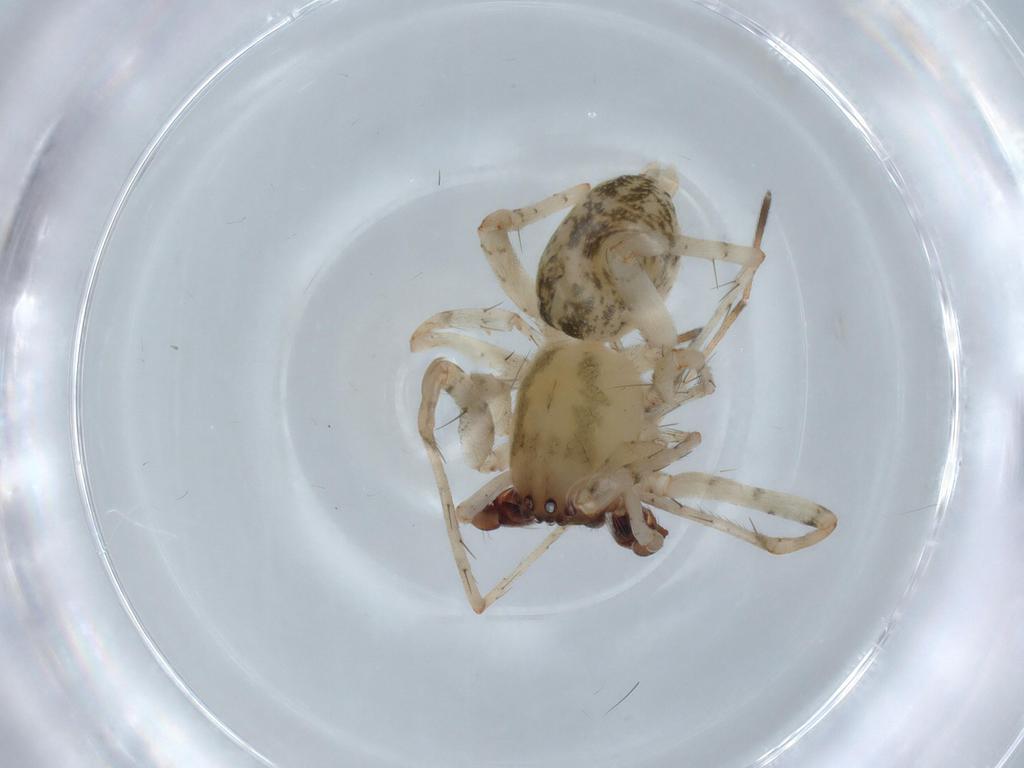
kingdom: Animalia
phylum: Arthropoda
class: Arachnida
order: Araneae
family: Anyphaenidae
